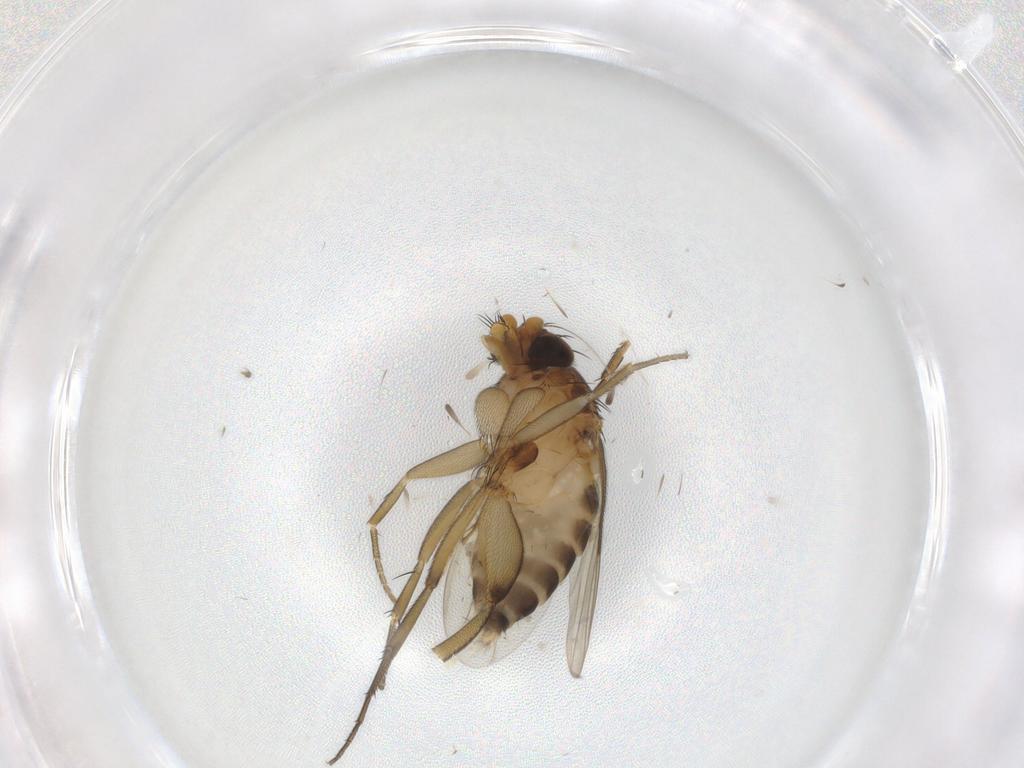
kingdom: Animalia
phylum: Arthropoda
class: Insecta
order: Diptera
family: Phoridae
